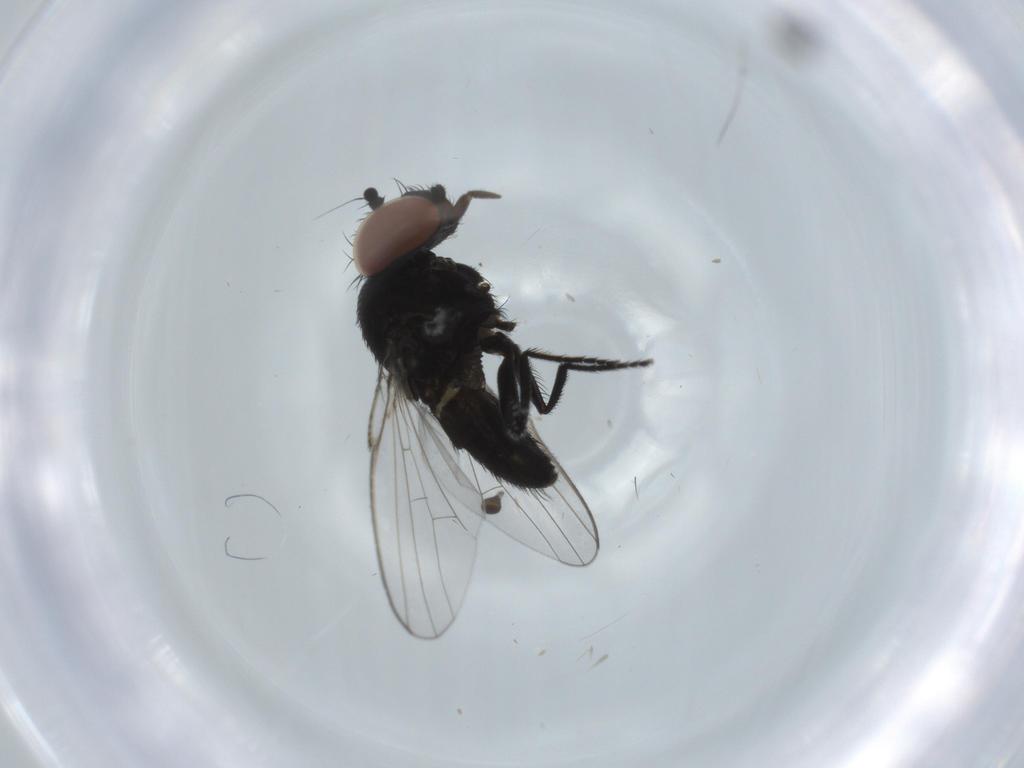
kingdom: Animalia
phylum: Arthropoda
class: Insecta
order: Diptera
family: Milichiidae
